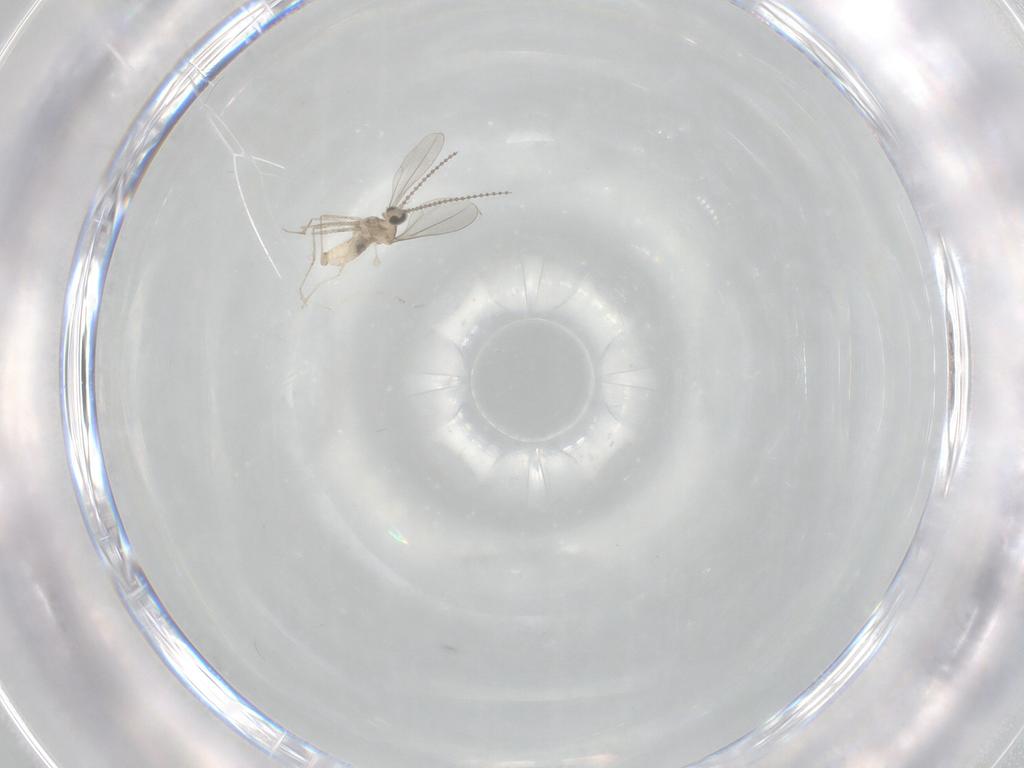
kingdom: Animalia
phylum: Arthropoda
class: Insecta
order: Diptera
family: Cecidomyiidae
